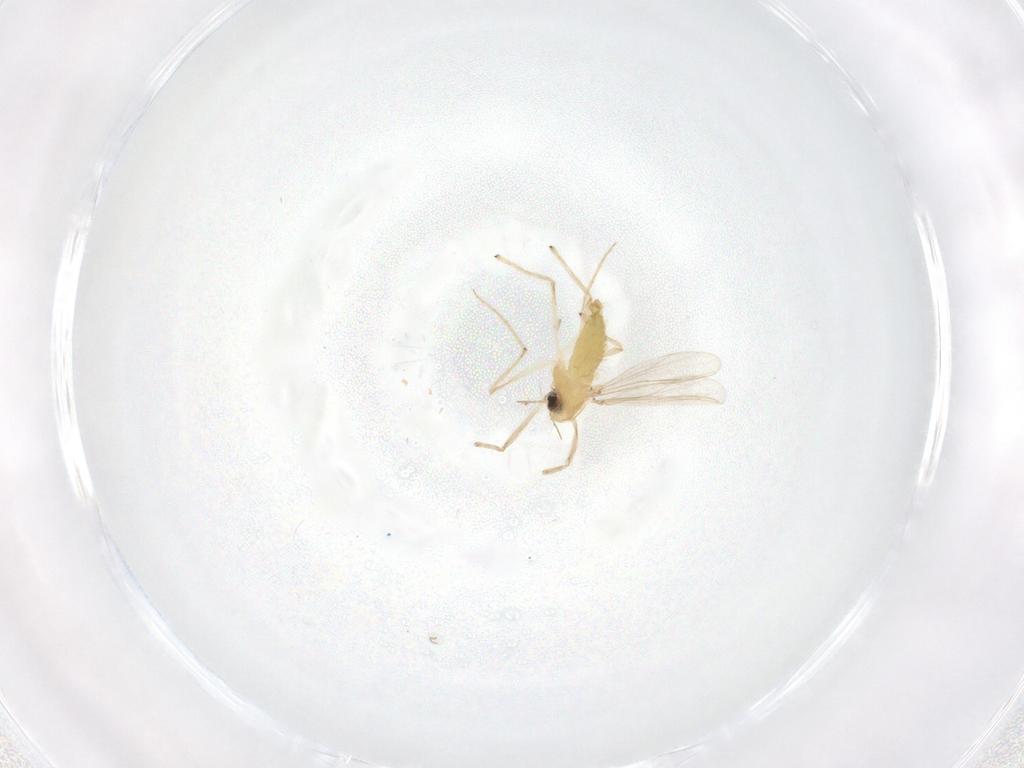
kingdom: Animalia
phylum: Arthropoda
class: Insecta
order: Diptera
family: Chironomidae
